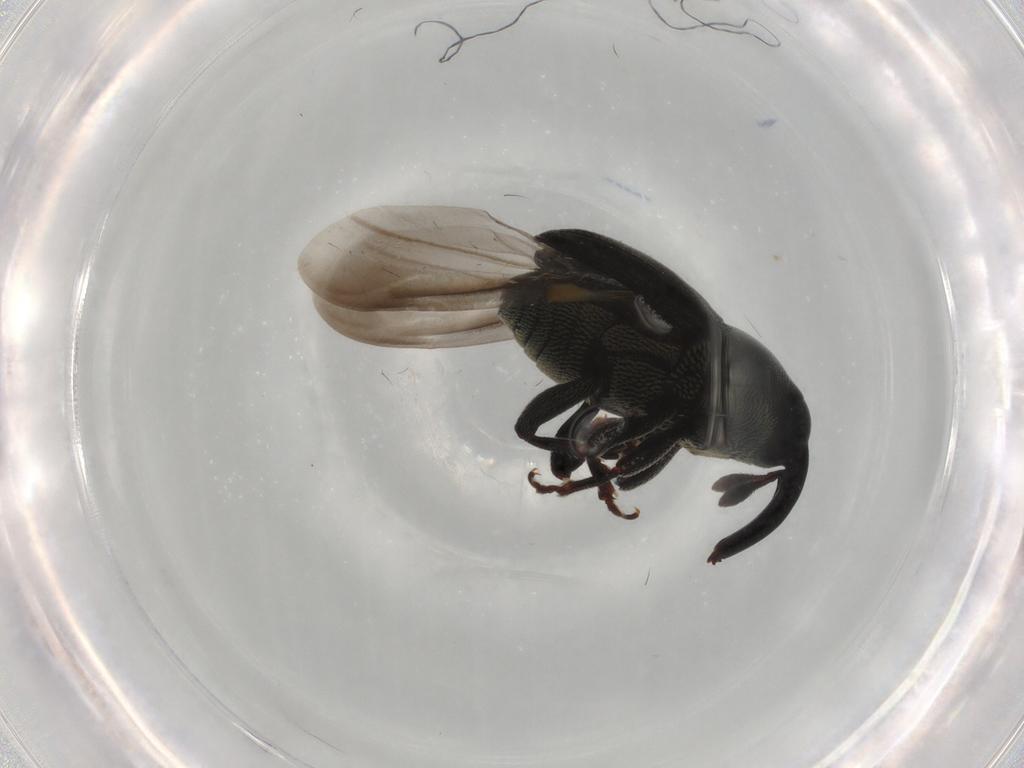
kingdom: Animalia
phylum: Arthropoda
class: Insecta
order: Coleoptera
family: Curculionidae
